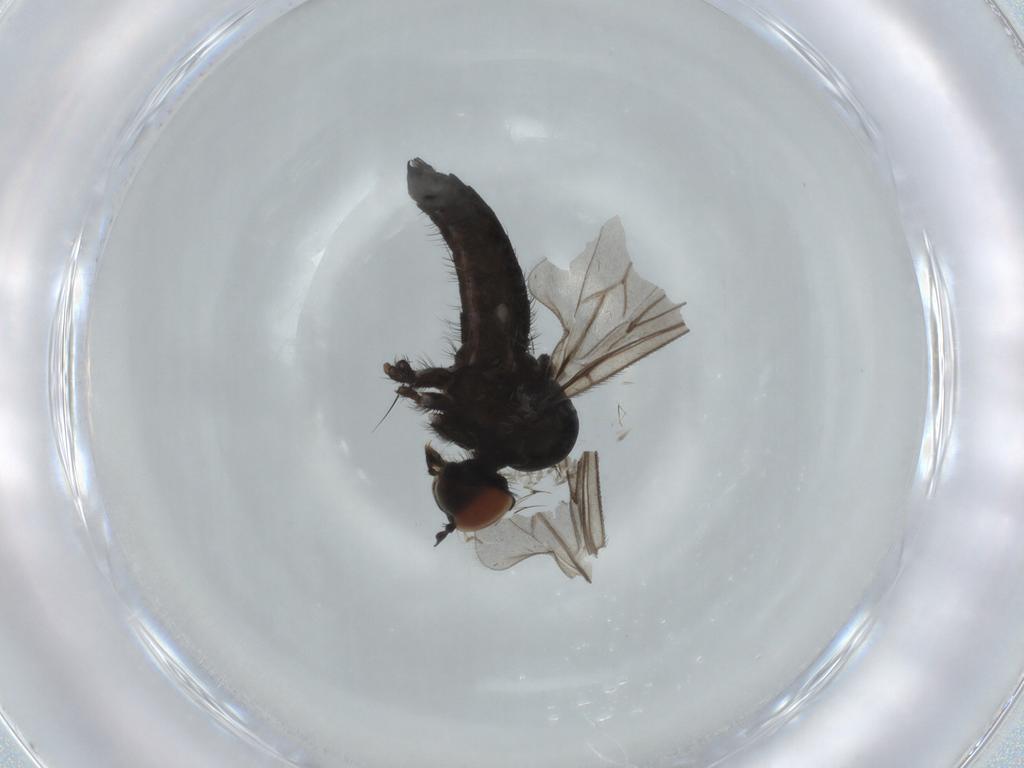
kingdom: Animalia
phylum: Arthropoda
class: Insecta
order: Diptera
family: Hybotidae
